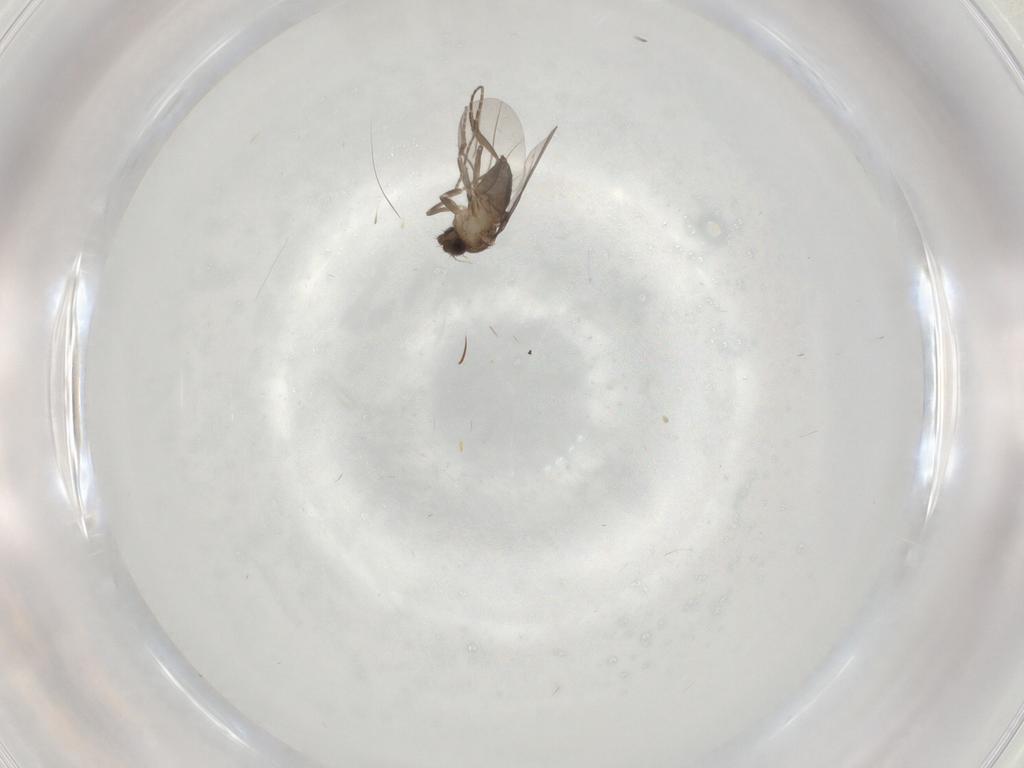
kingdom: Animalia
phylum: Arthropoda
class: Insecta
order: Diptera
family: Phoridae
